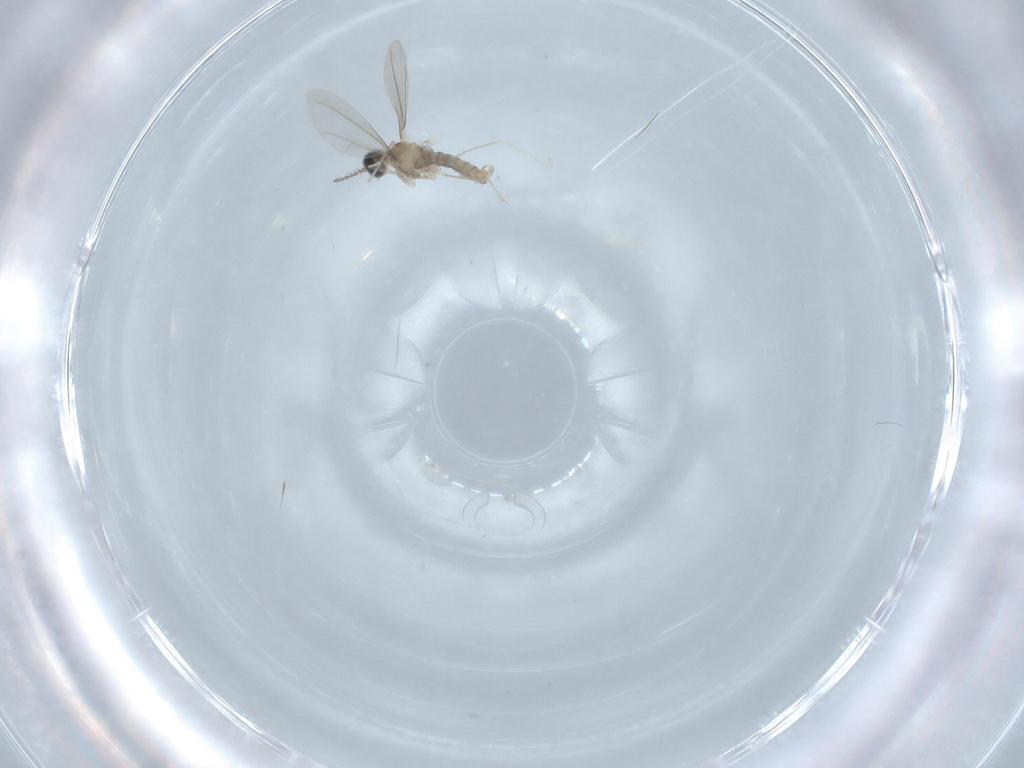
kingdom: Animalia
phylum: Arthropoda
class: Insecta
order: Diptera
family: Cecidomyiidae
